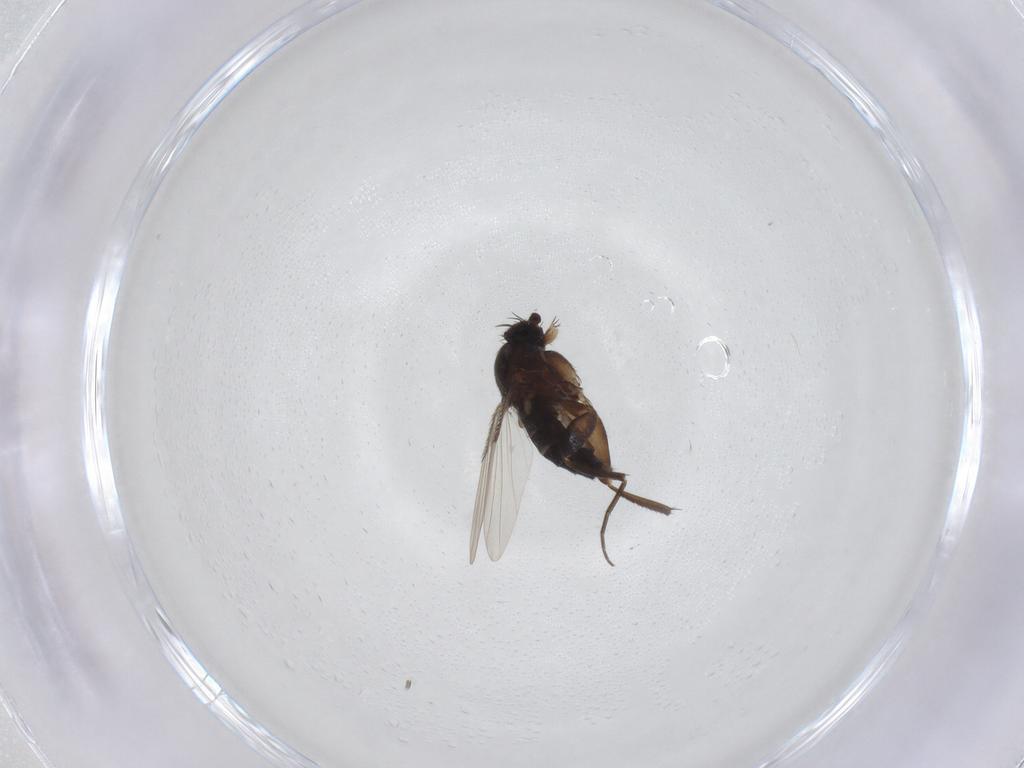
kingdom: Animalia
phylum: Arthropoda
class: Insecta
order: Diptera
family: Phoridae
